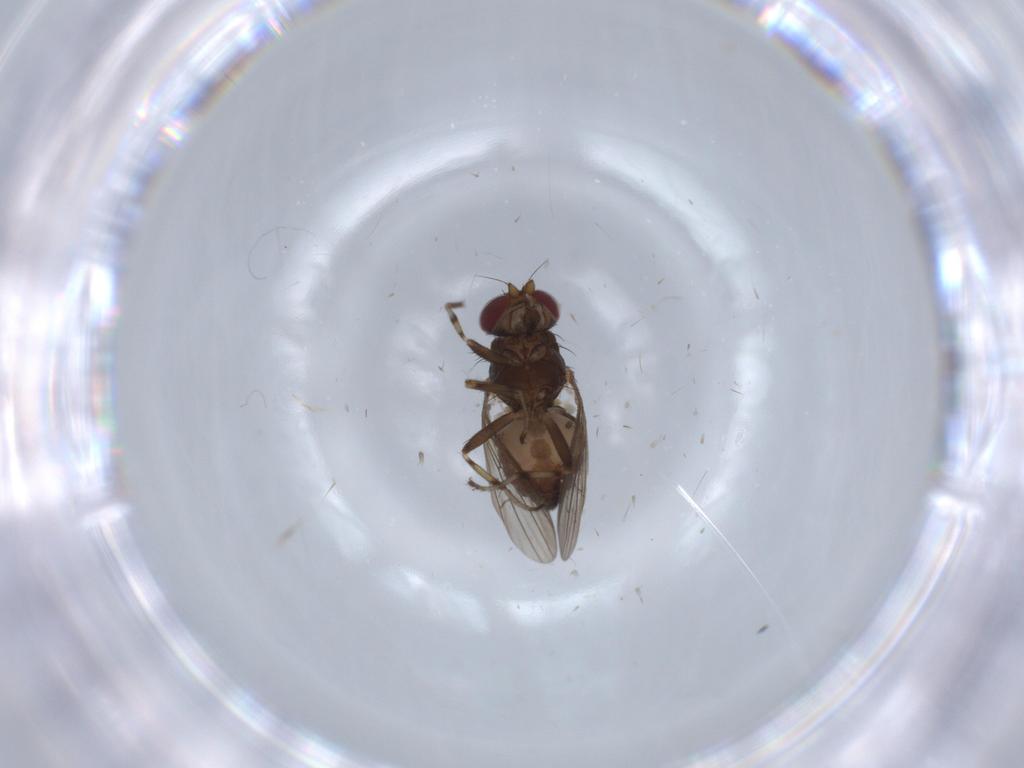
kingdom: Animalia
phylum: Arthropoda
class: Insecta
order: Diptera
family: Heleomyzidae
